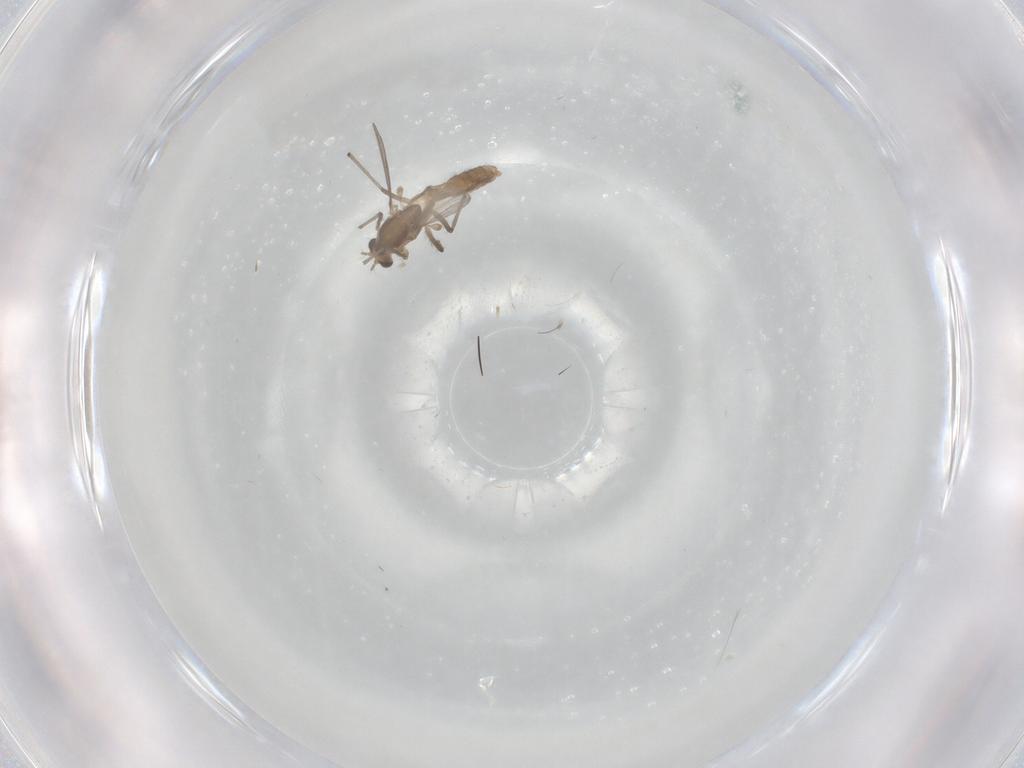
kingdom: Animalia
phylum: Arthropoda
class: Insecta
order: Diptera
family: Chironomidae
